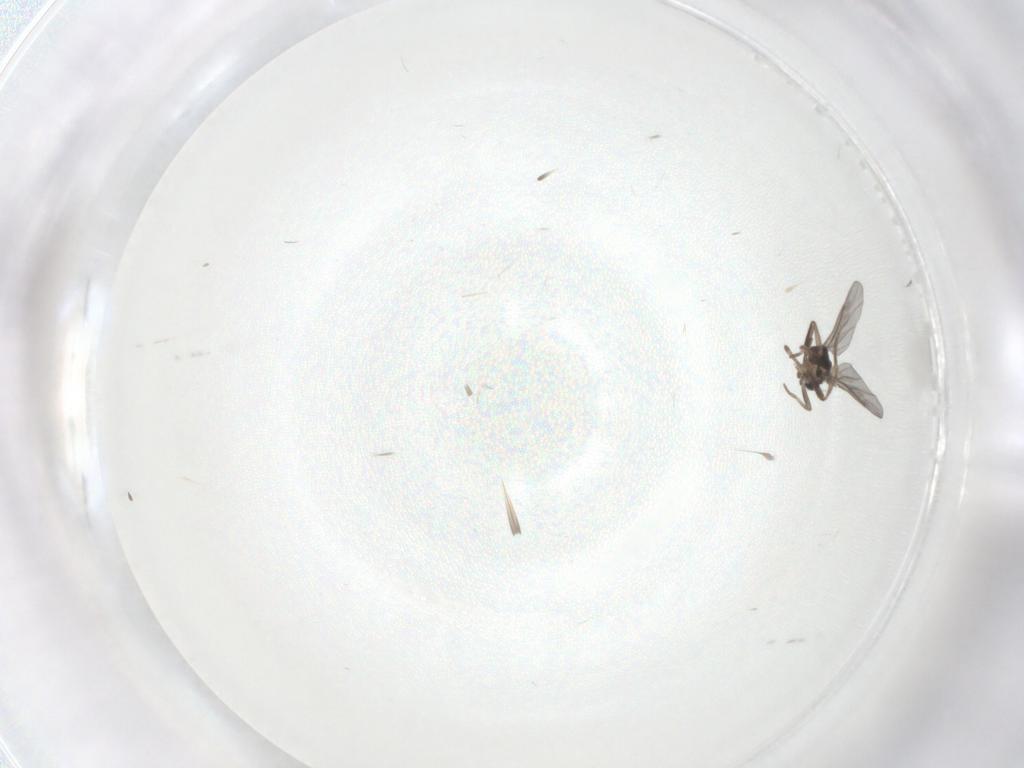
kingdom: Animalia
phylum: Arthropoda
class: Insecta
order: Diptera
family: Phoridae
